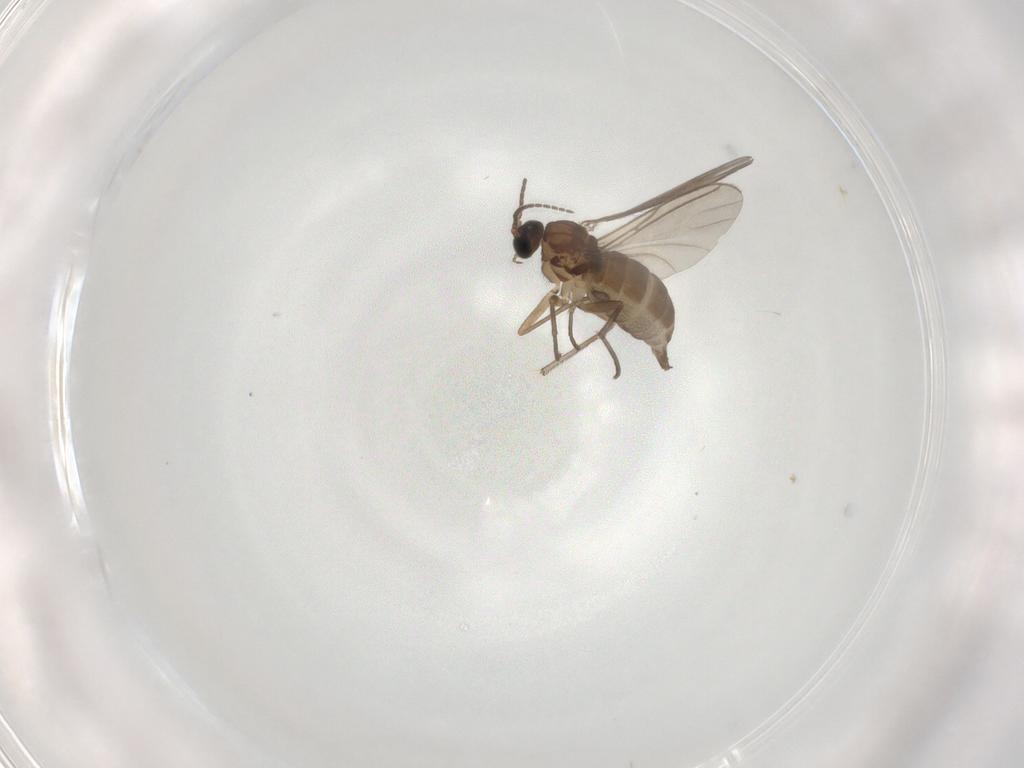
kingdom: Animalia
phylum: Arthropoda
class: Insecta
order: Diptera
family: Sciaridae
